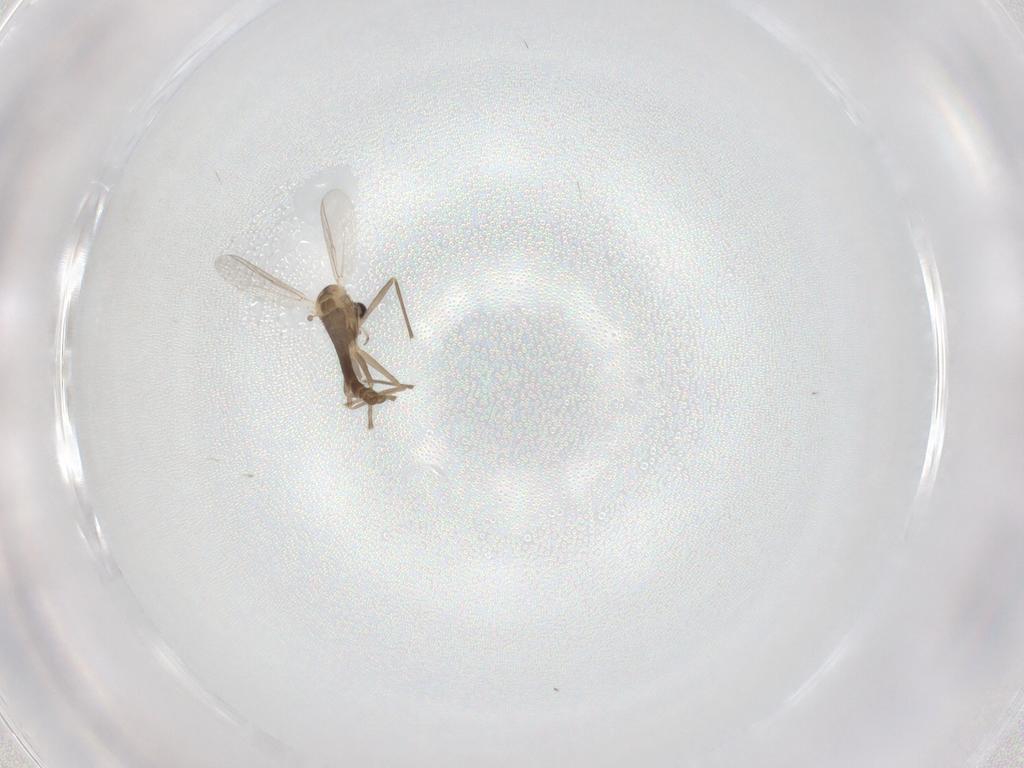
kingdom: Animalia
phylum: Arthropoda
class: Insecta
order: Diptera
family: Chironomidae
